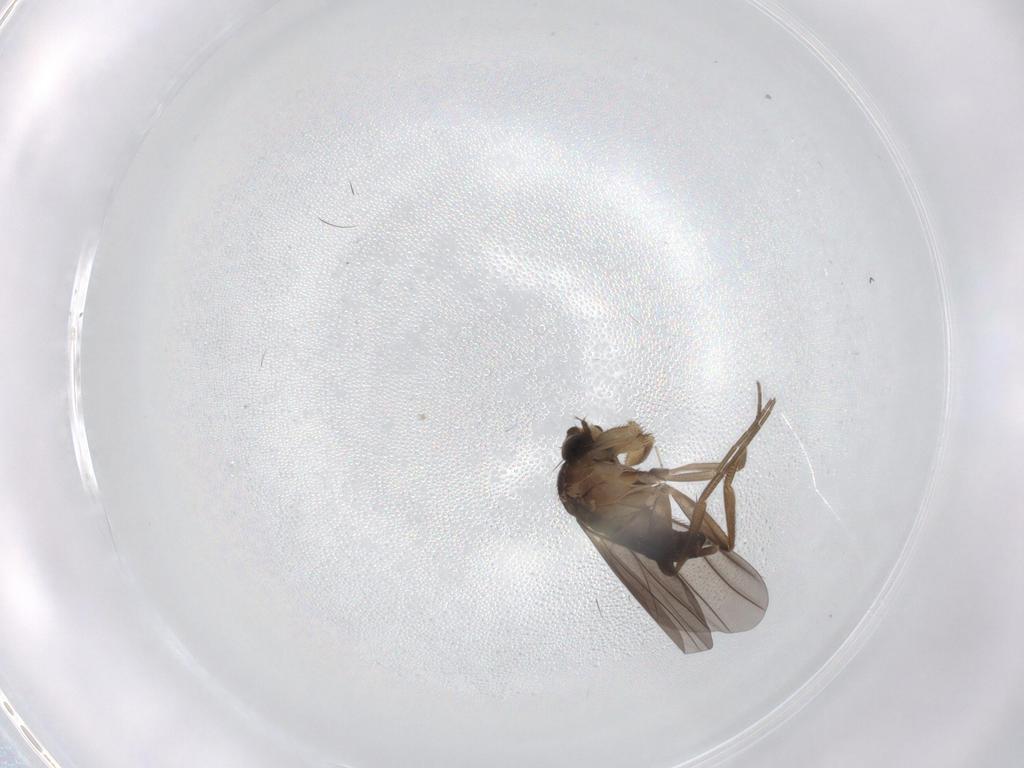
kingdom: Animalia
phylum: Arthropoda
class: Insecta
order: Diptera
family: Cecidomyiidae
